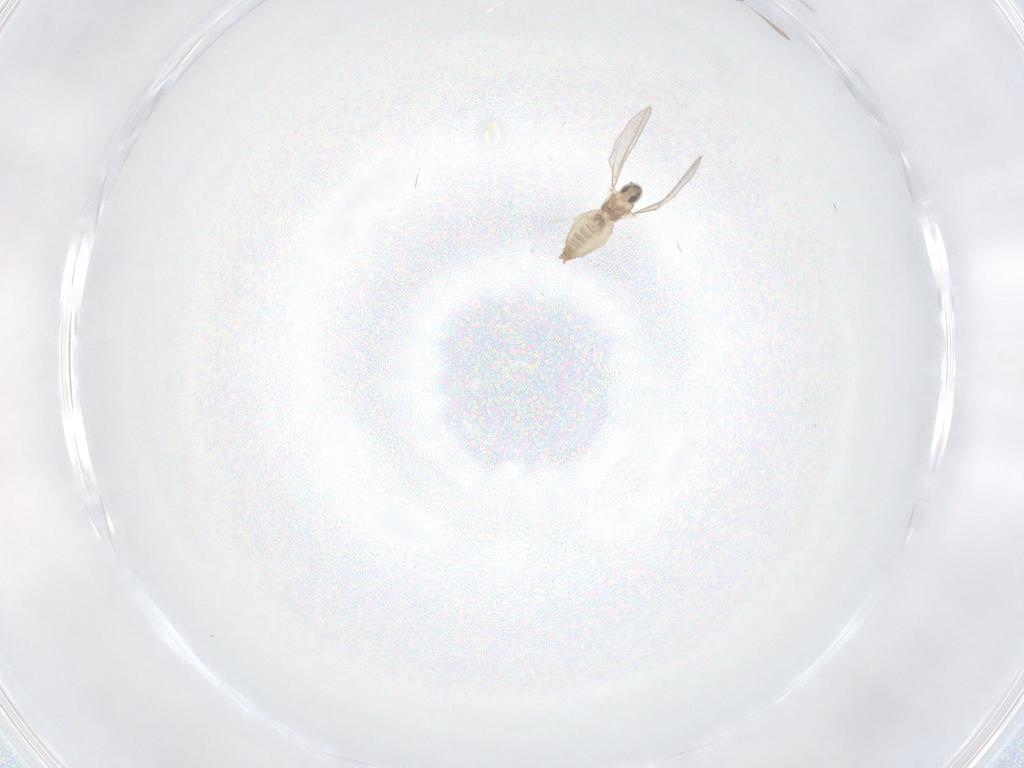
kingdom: Animalia
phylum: Arthropoda
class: Insecta
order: Diptera
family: Cecidomyiidae
